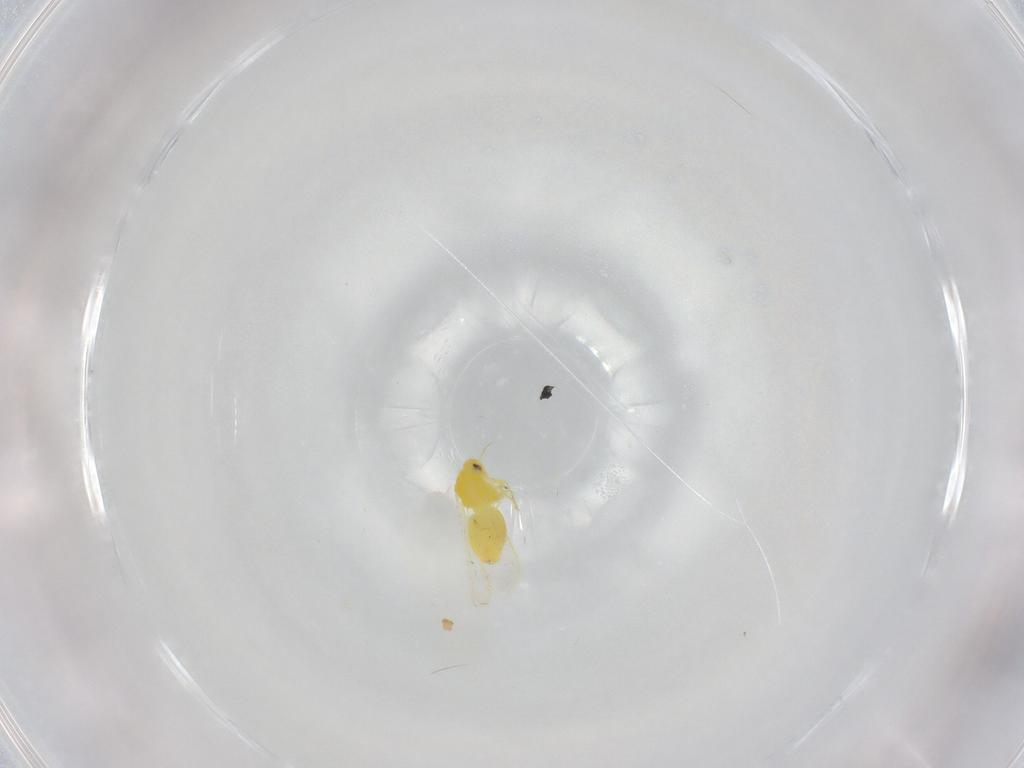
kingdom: Animalia
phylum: Arthropoda
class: Insecta
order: Hemiptera
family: Aleyrodidae
